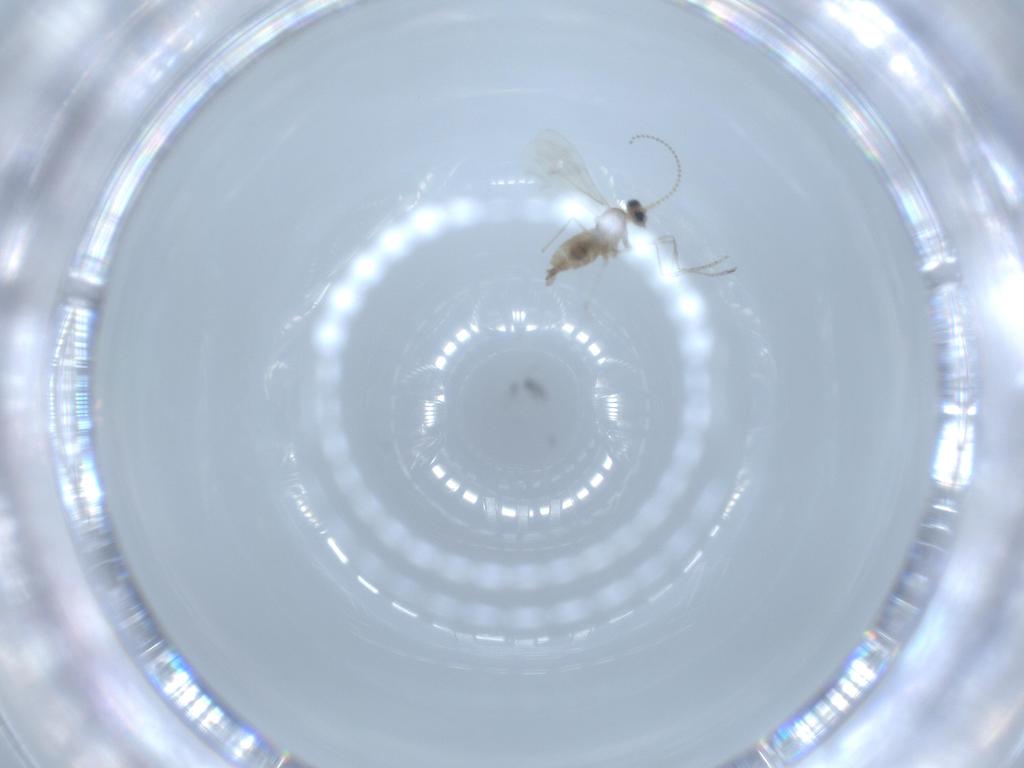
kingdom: Animalia
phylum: Arthropoda
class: Insecta
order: Diptera
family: Cecidomyiidae
